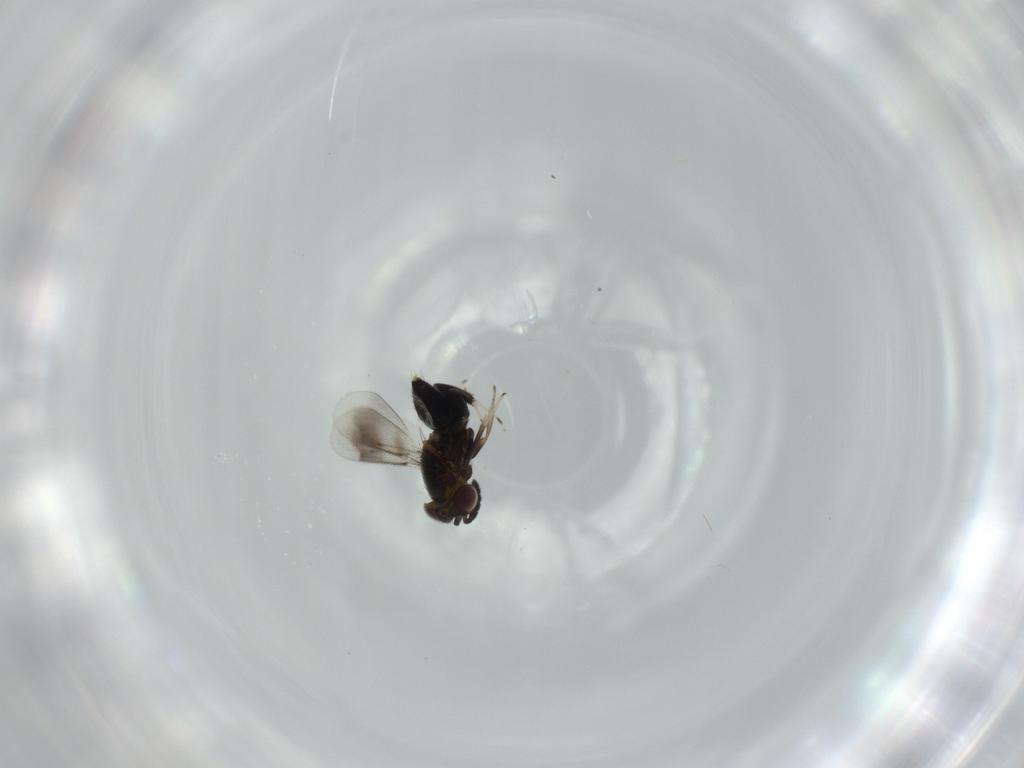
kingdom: Animalia
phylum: Arthropoda
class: Insecta
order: Hymenoptera
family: Aphelinidae
